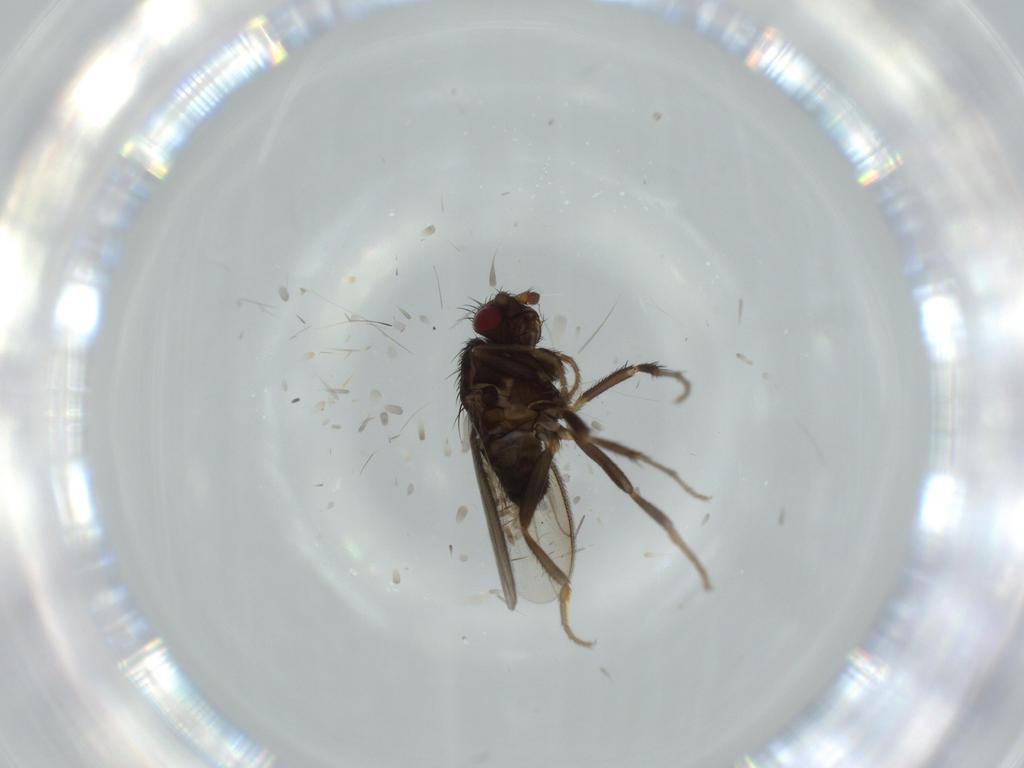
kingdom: Animalia
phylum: Arthropoda
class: Insecta
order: Diptera
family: Sphaeroceridae
